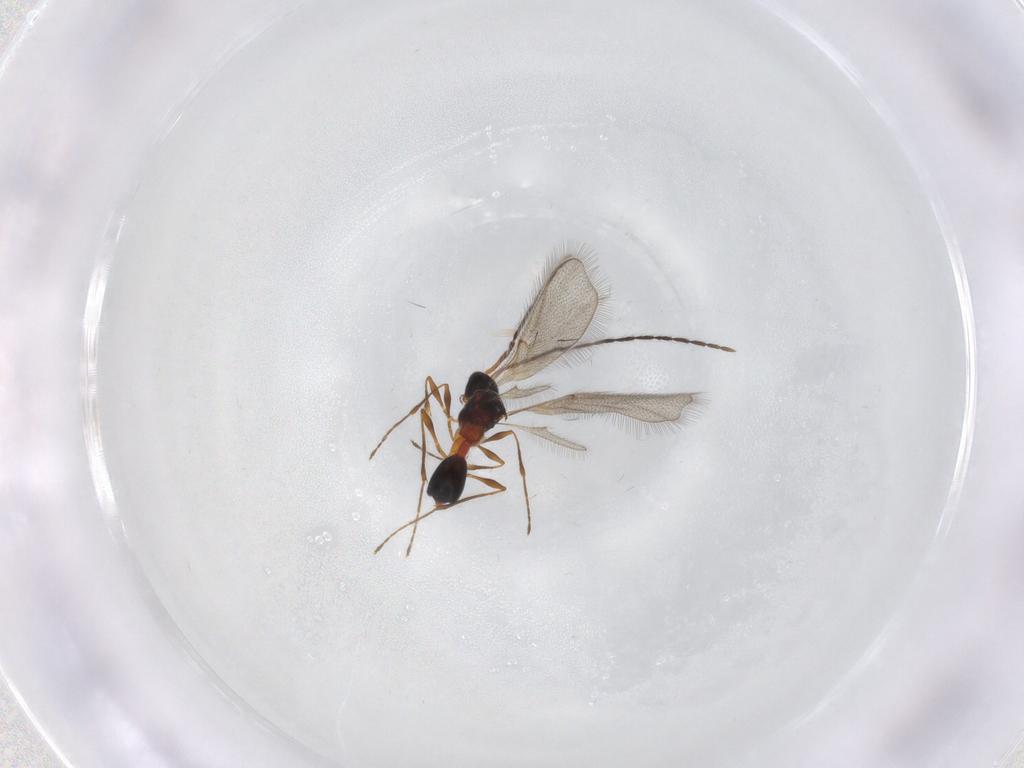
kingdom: Animalia
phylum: Arthropoda
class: Insecta
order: Hymenoptera
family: Diapriidae
